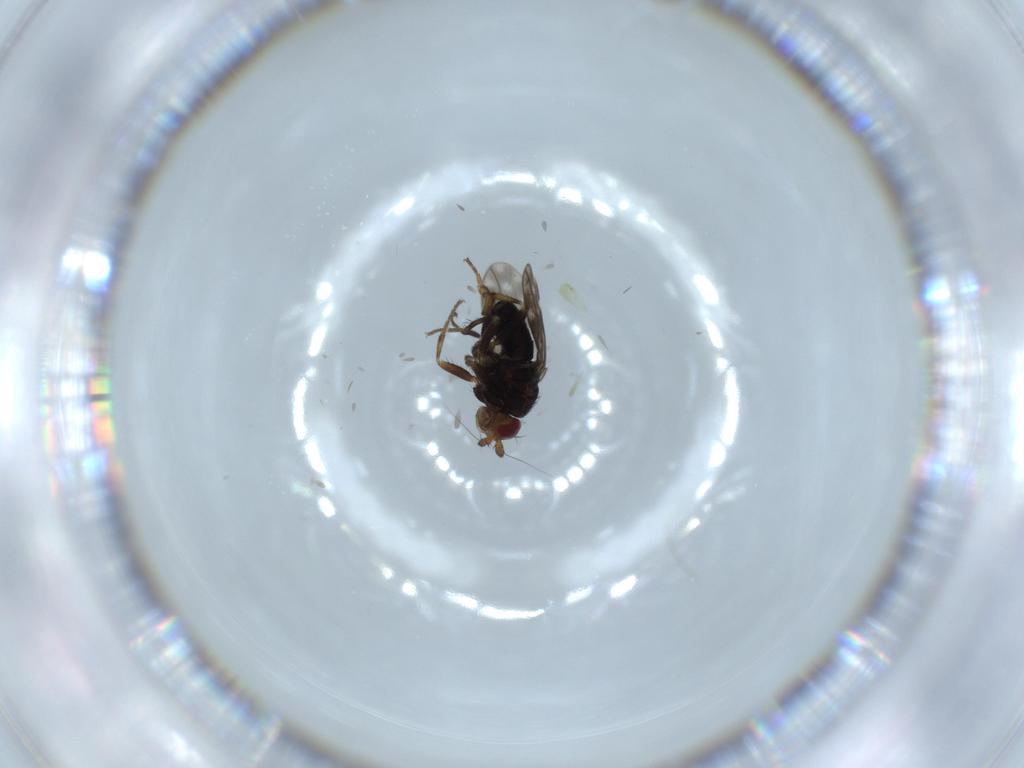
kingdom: Animalia
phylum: Arthropoda
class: Insecta
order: Diptera
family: Sphaeroceridae
